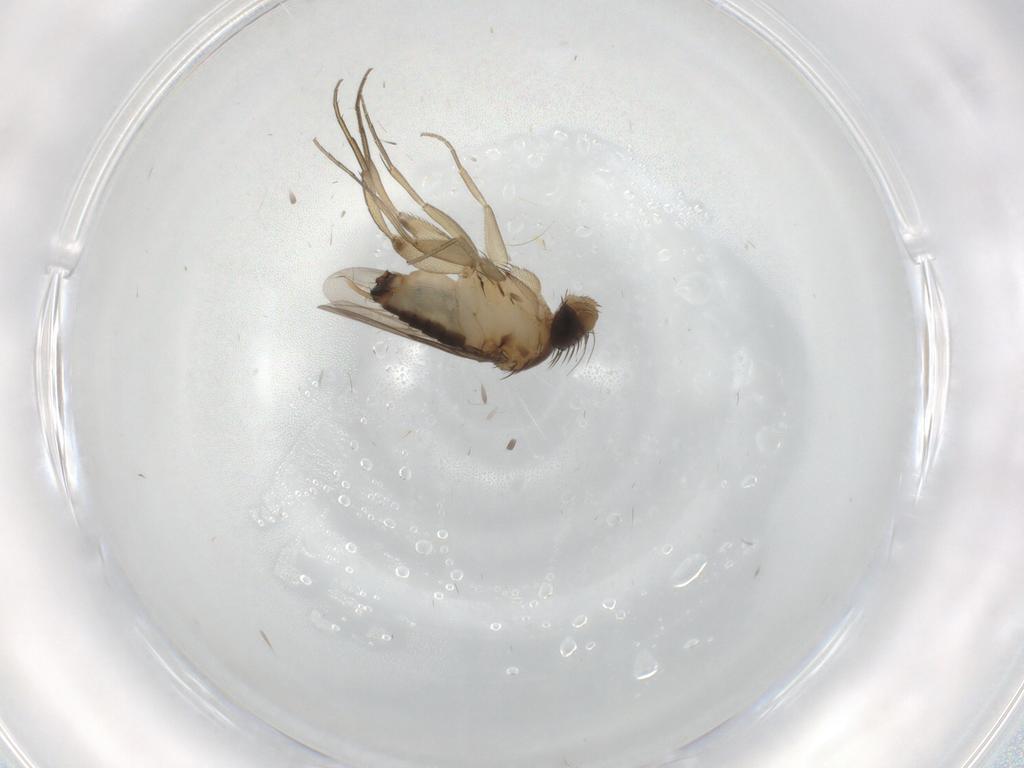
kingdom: Animalia
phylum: Arthropoda
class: Insecta
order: Diptera
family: Phoridae
